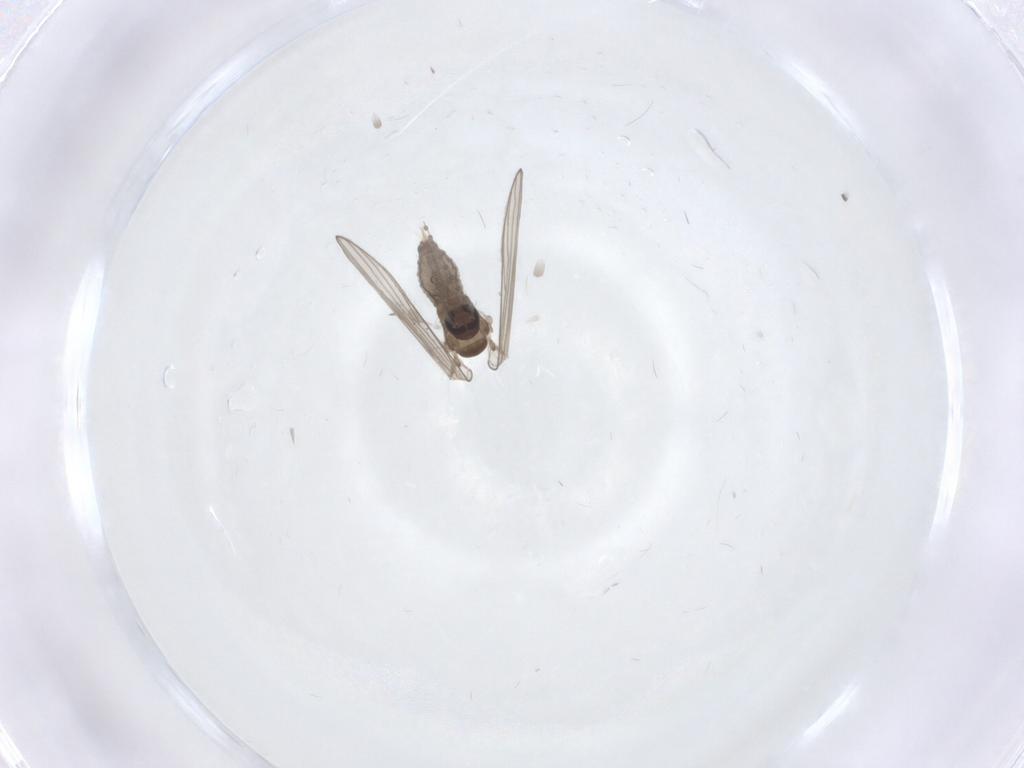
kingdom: Animalia
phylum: Arthropoda
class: Insecta
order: Diptera
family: Psychodidae
